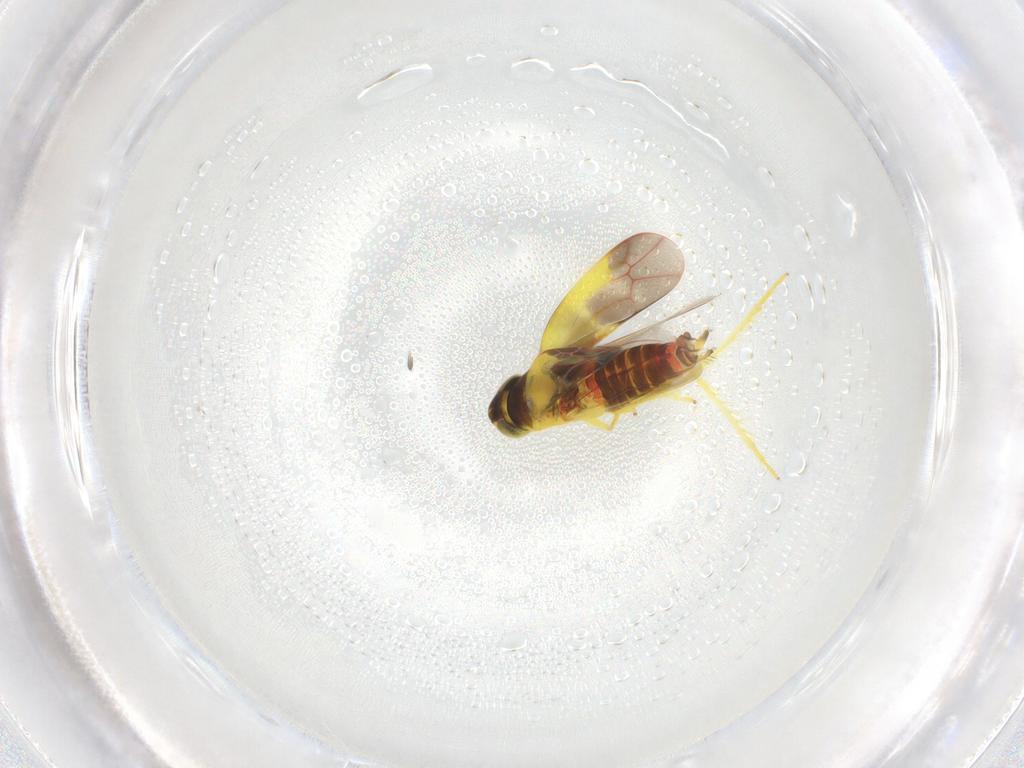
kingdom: Animalia
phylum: Arthropoda
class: Insecta
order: Hemiptera
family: Cicadellidae
